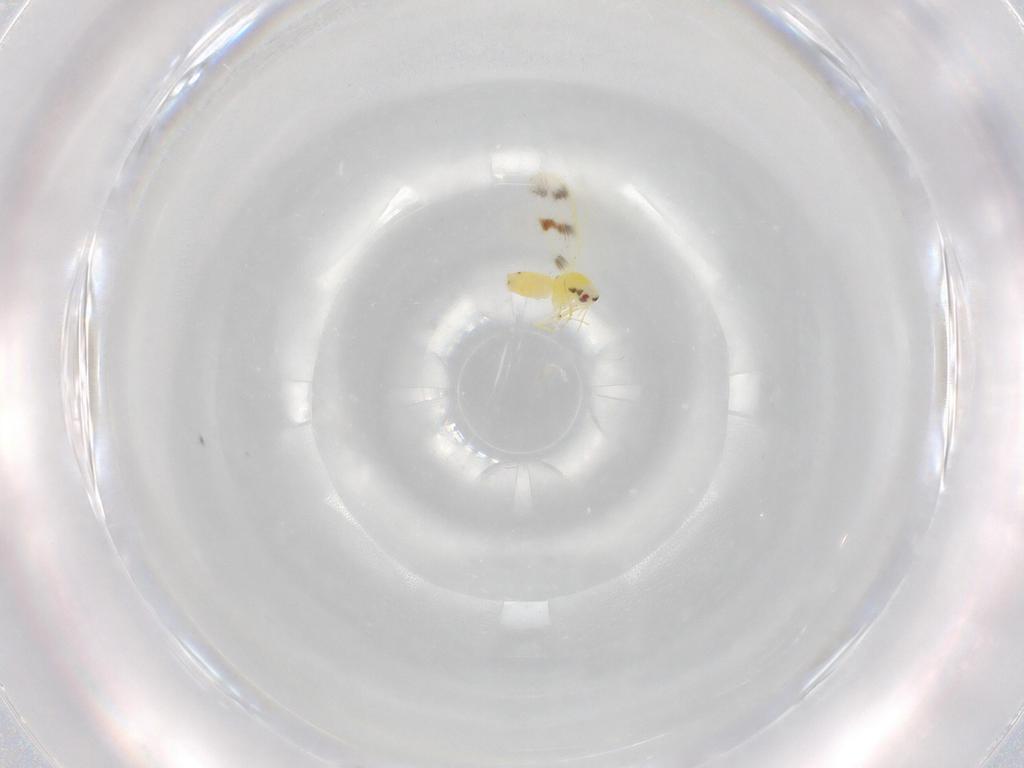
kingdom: Animalia
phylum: Arthropoda
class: Insecta
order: Hemiptera
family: Aleyrodidae
